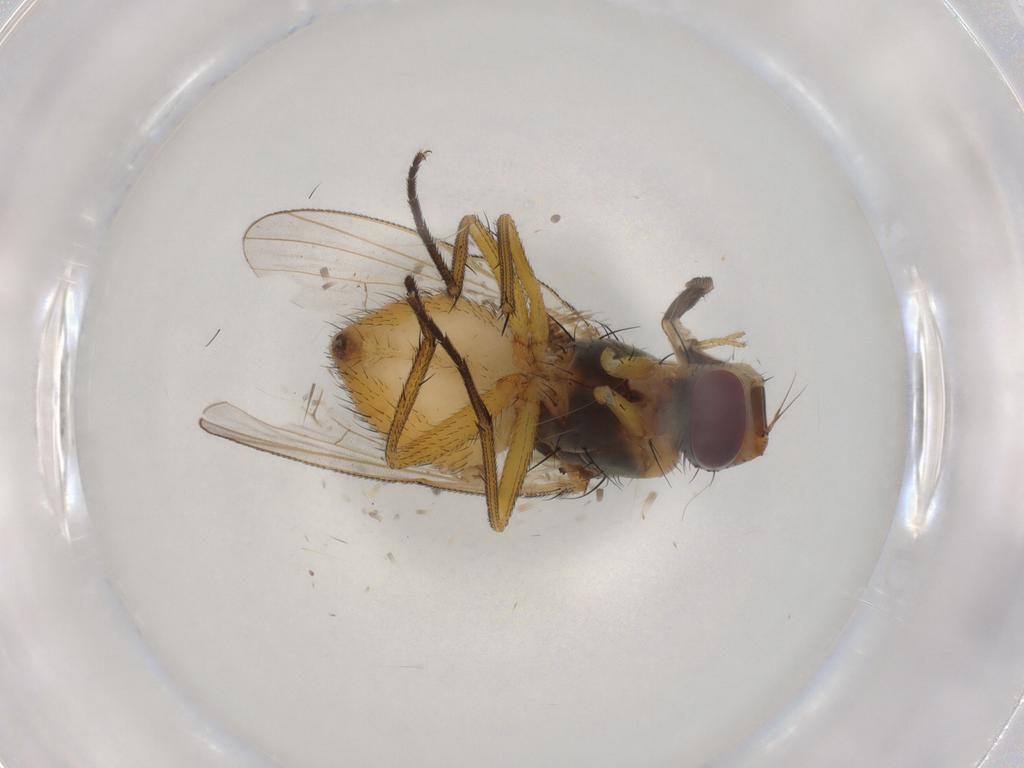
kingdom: Animalia
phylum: Arthropoda
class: Insecta
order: Diptera
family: Muscidae
